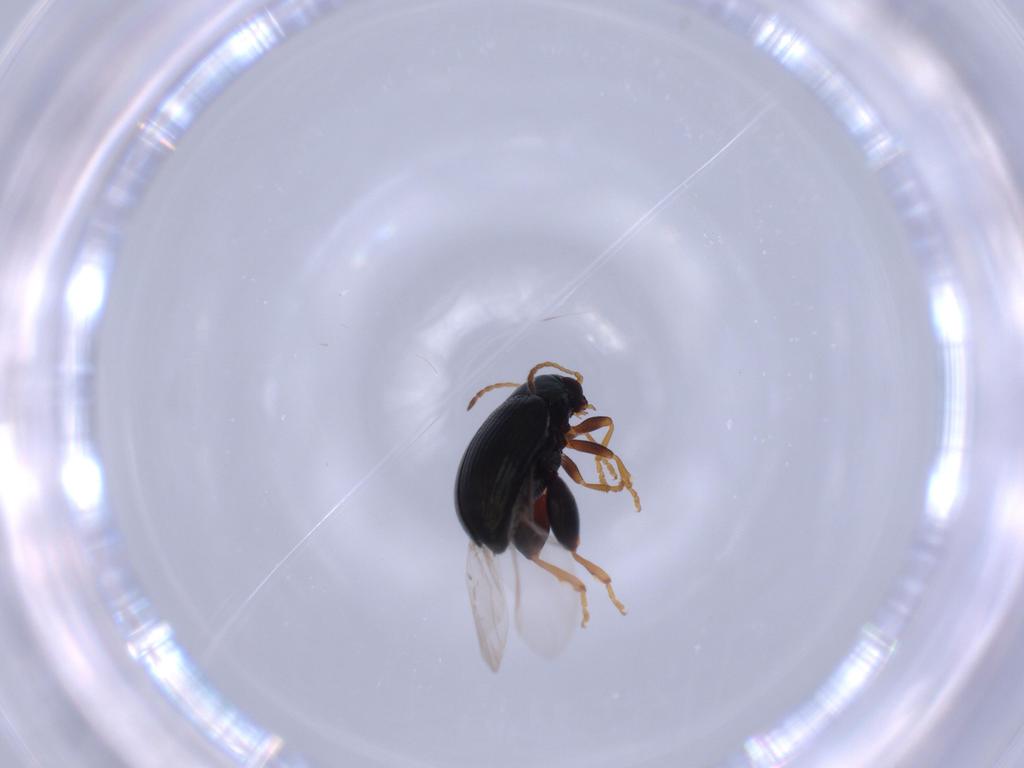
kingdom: Animalia
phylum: Arthropoda
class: Insecta
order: Coleoptera
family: Chrysomelidae
